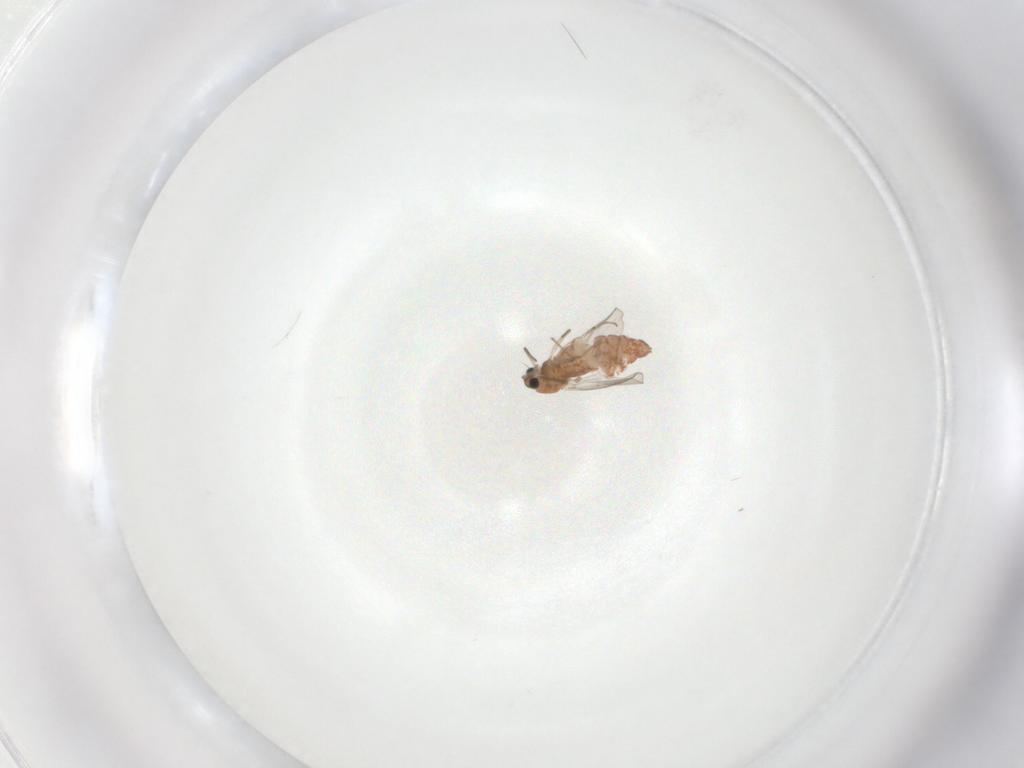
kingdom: Animalia
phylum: Arthropoda
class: Insecta
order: Diptera
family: Chironomidae
